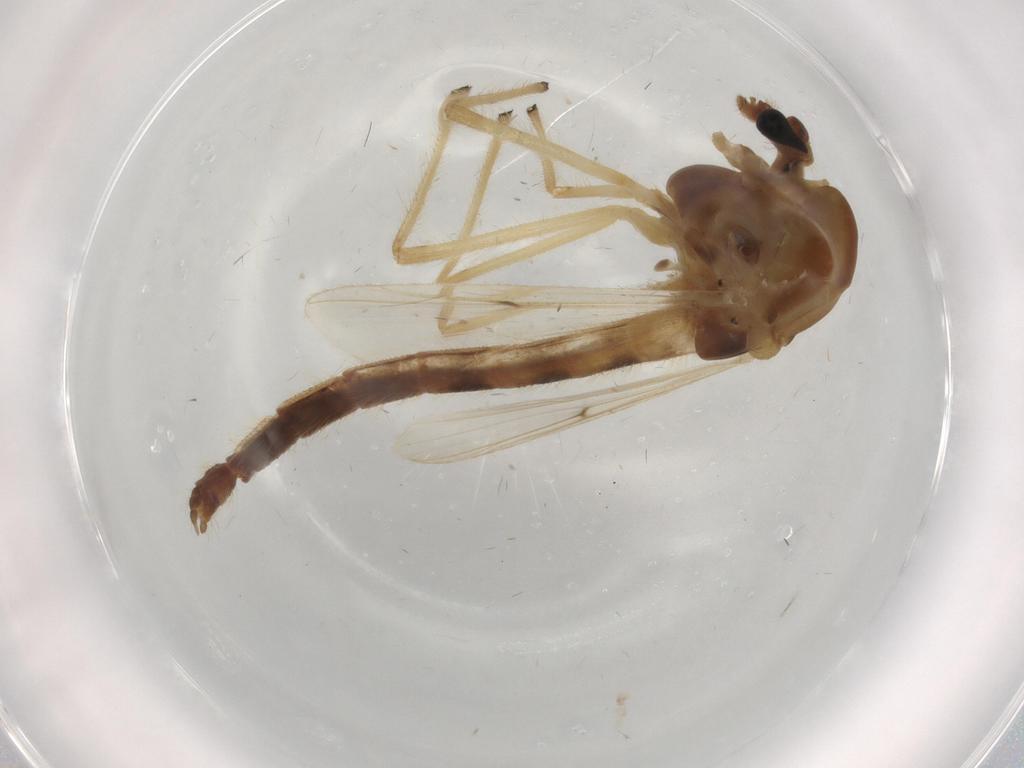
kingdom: Animalia
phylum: Arthropoda
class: Insecta
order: Diptera
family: Chironomidae
